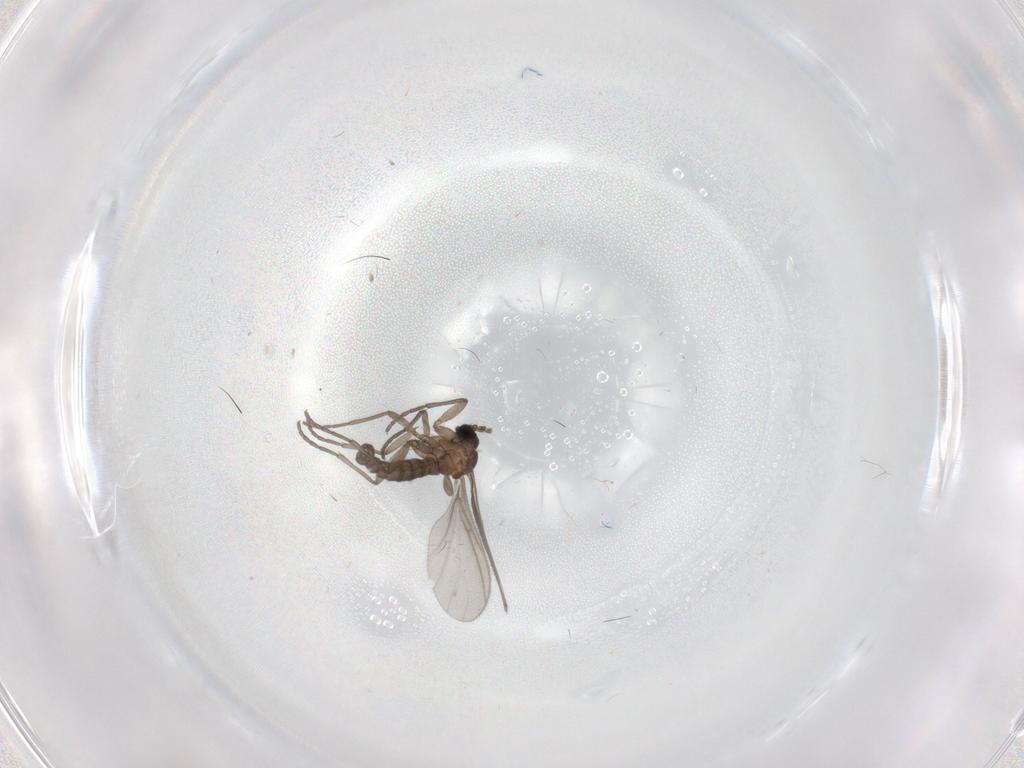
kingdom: Animalia
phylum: Arthropoda
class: Insecta
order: Diptera
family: Sciaridae
